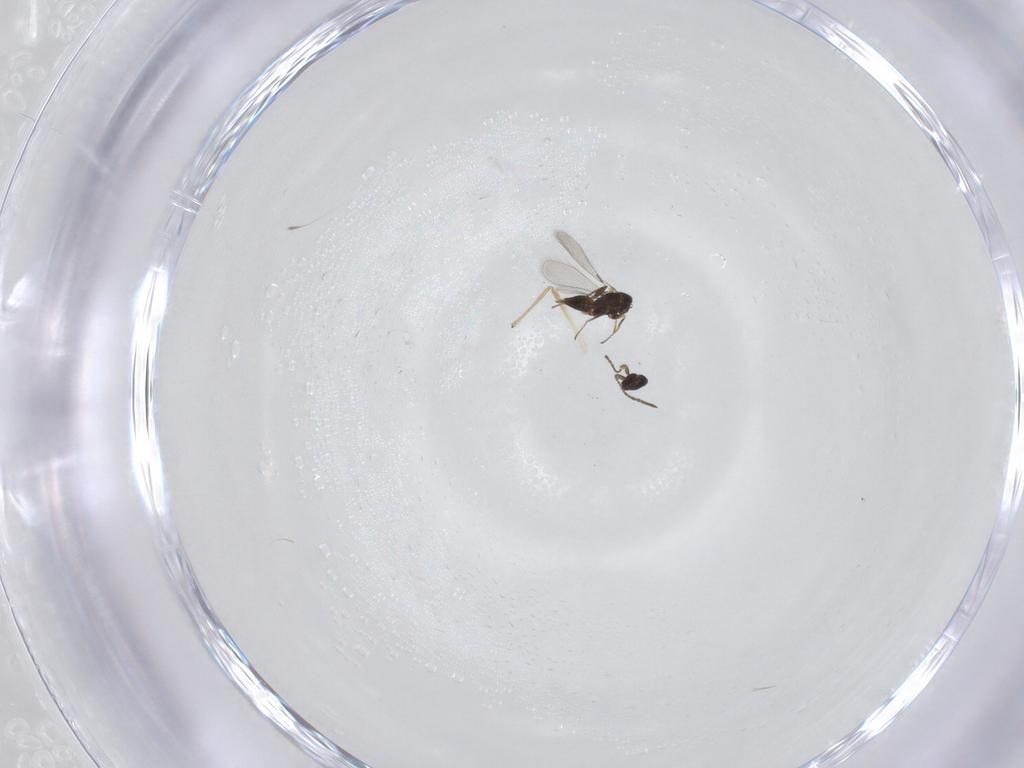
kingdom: Animalia
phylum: Arthropoda
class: Insecta
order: Hymenoptera
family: Mymaridae
